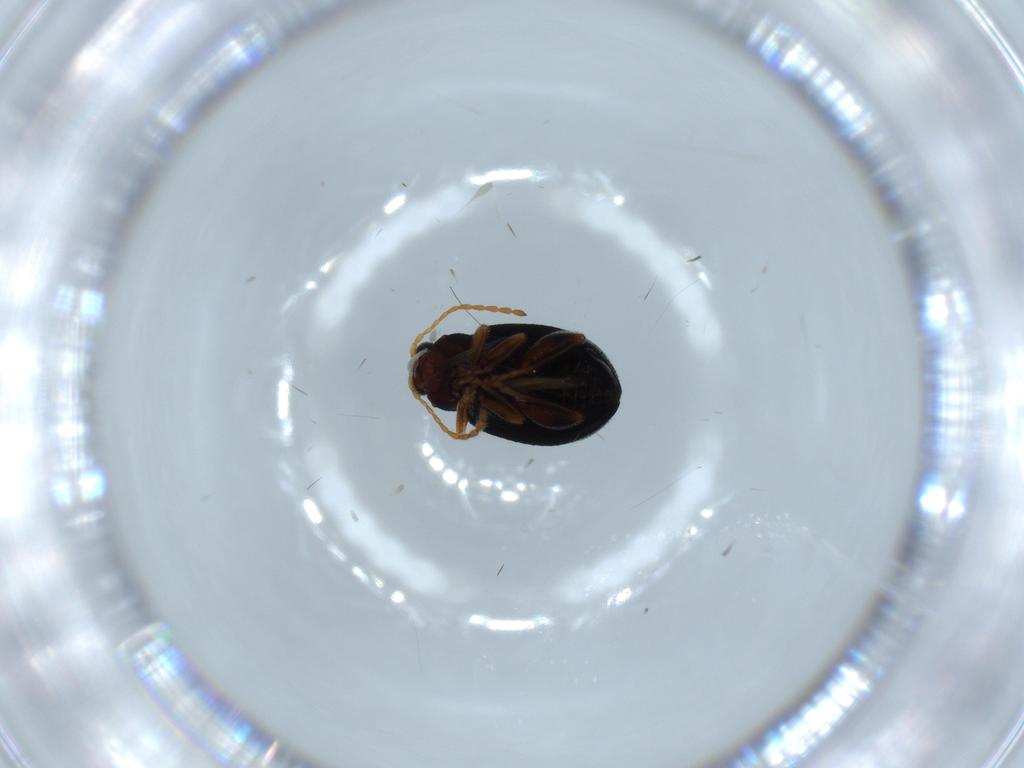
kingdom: Animalia
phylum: Arthropoda
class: Insecta
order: Coleoptera
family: Chrysomelidae
